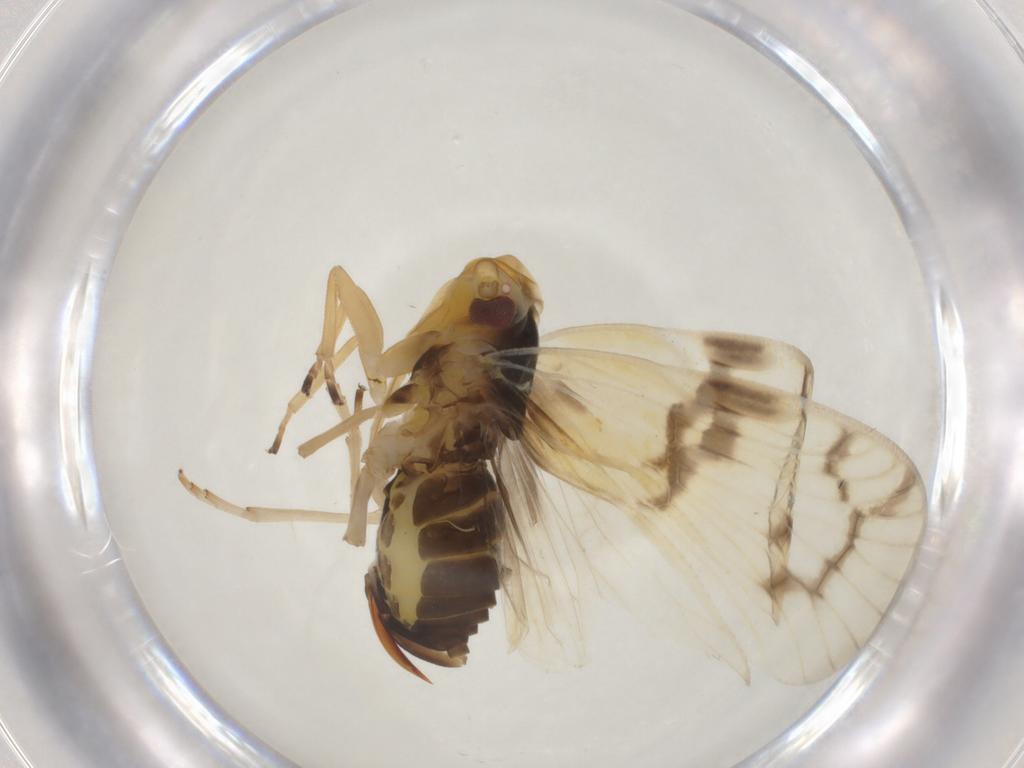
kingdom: Animalia
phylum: Arthropoda
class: Insecta
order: Hemiptera
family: Cixiidae
